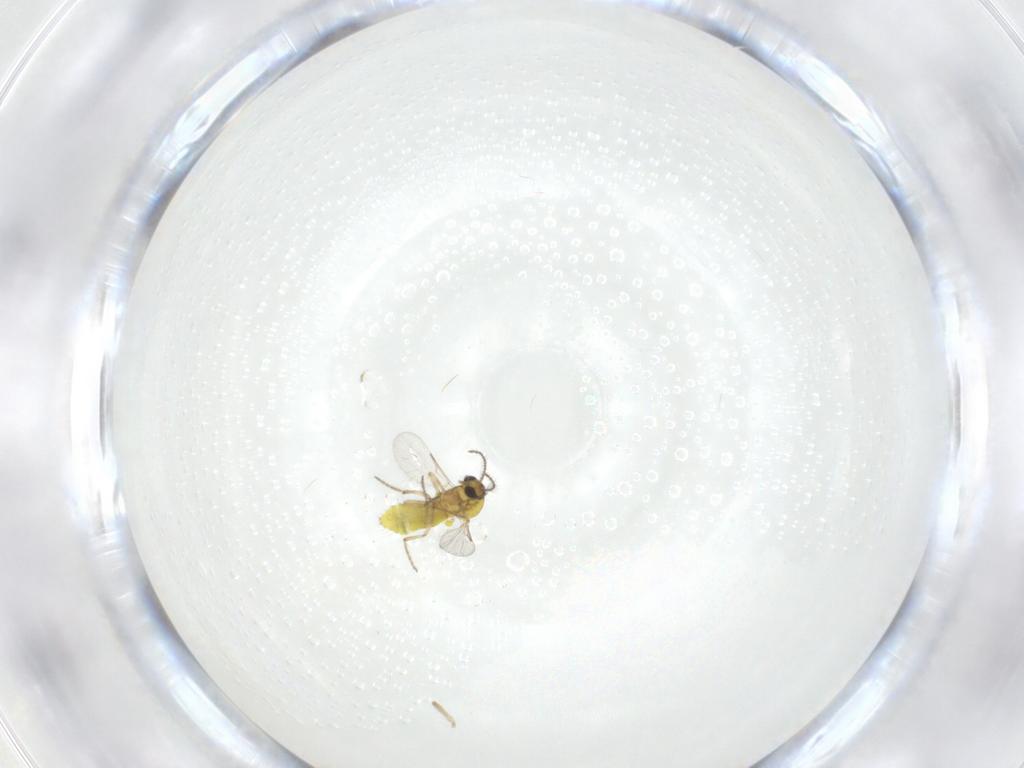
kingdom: Animalia
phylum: Arthropoda
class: Insecta
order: Diptera
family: Ceratopogonidae
